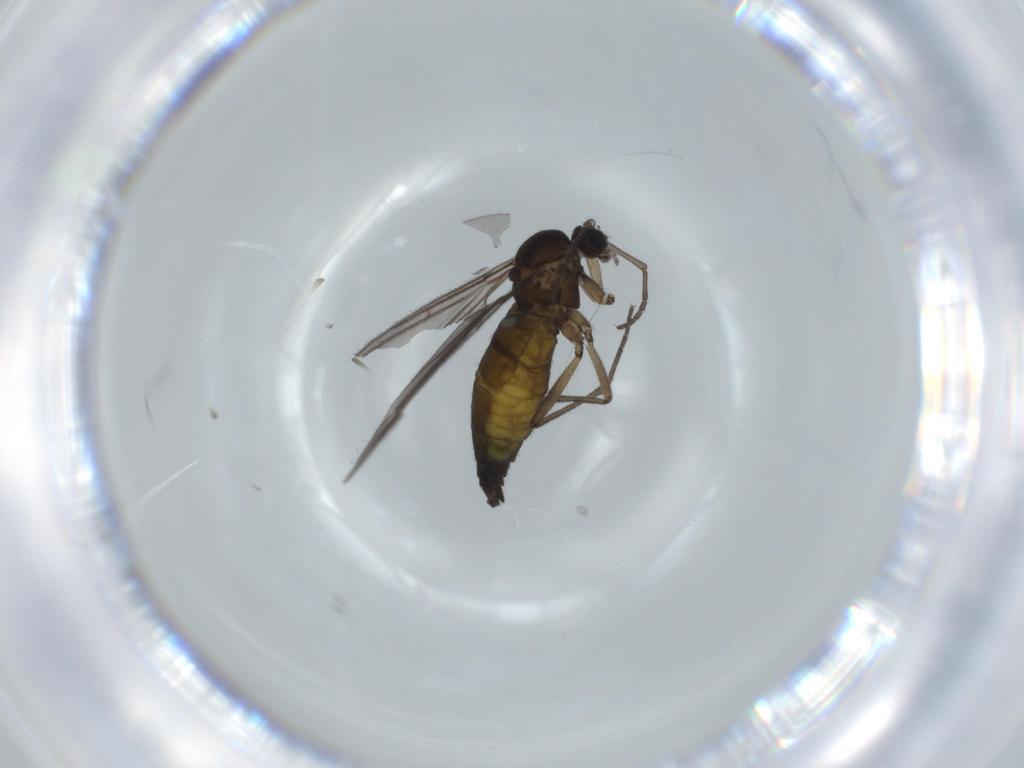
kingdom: Animalia
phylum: Arthropoda
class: Insecta
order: Diptera
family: Sciaridae
